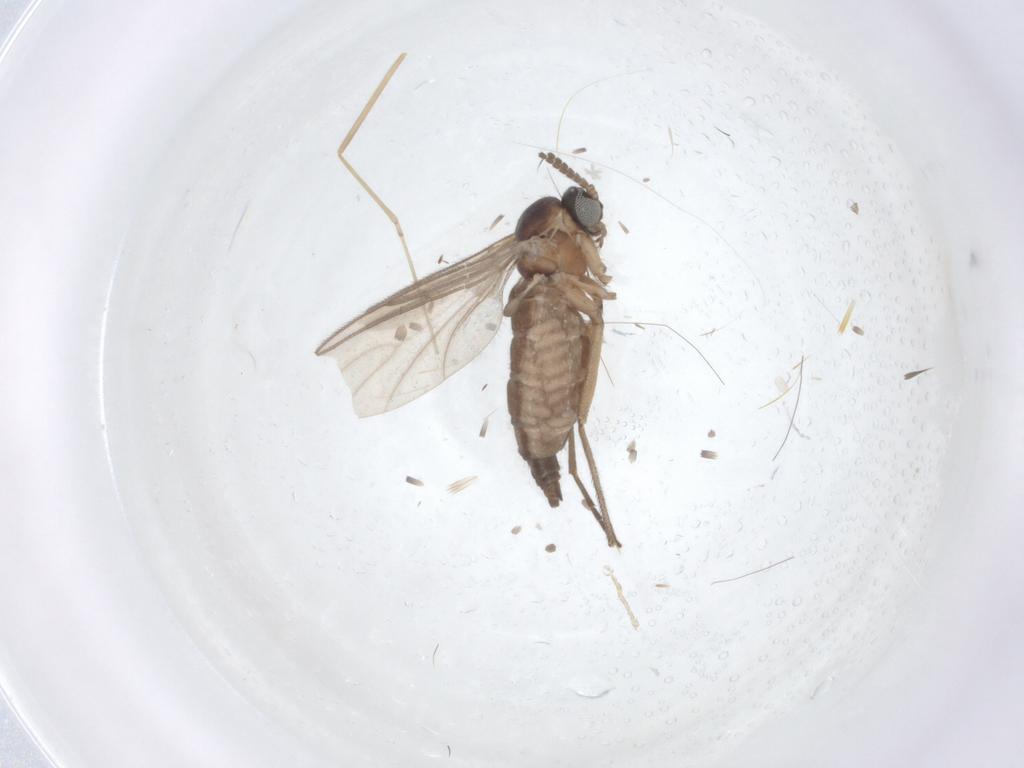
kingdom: Animalia
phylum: Arthropoda
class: Insecta
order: Diptera
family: Sciaridae
